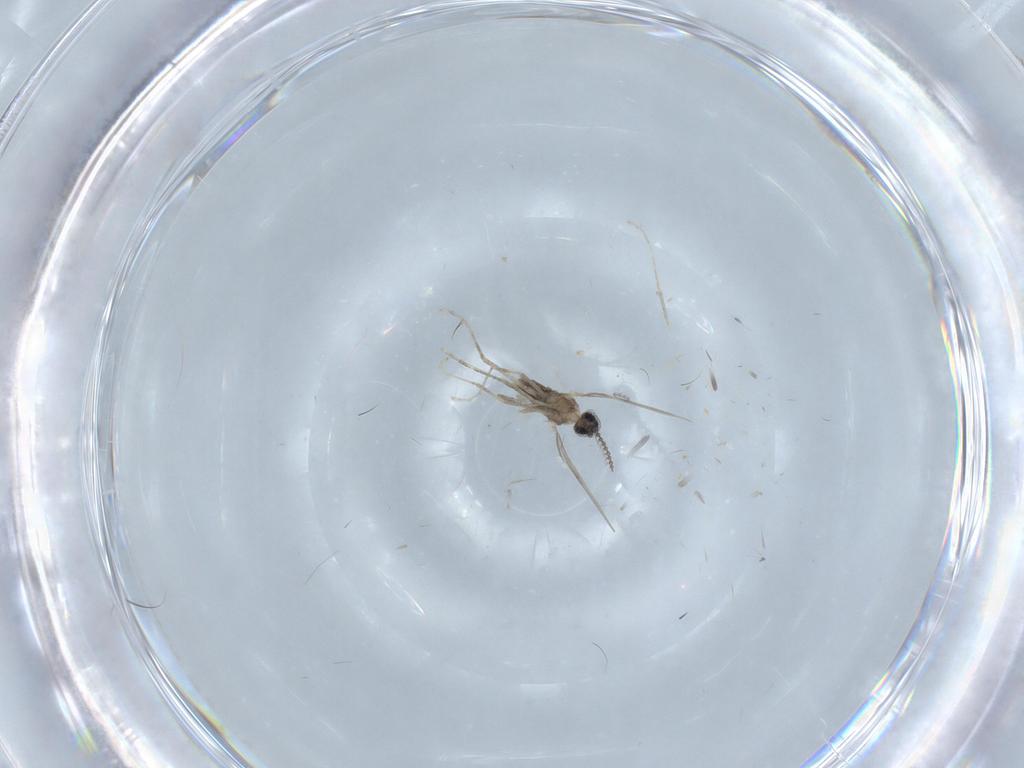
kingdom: Animalia
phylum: Arthropoda
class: Insecta
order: Diptera
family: Cecidomyiidae
